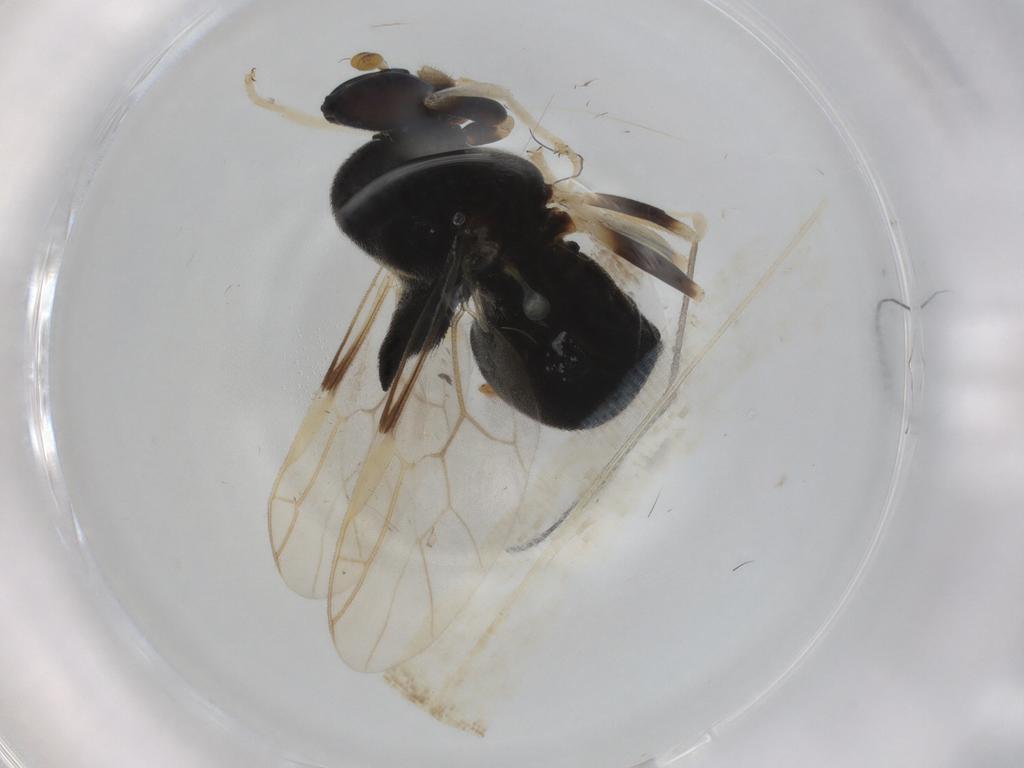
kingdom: Animalia
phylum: Arthropoda
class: Insecta
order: Diptera
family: Stratiomyidae
